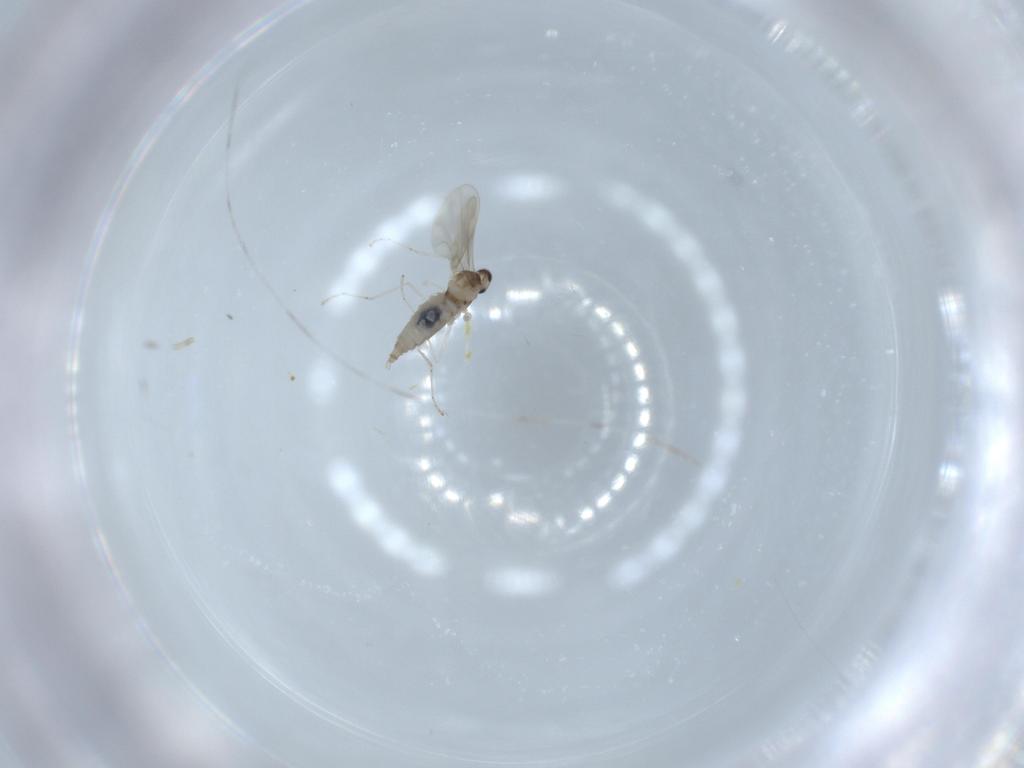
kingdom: Animalia
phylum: Arthropoda
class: Insecta
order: Diptera
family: Cecidomyiidae
